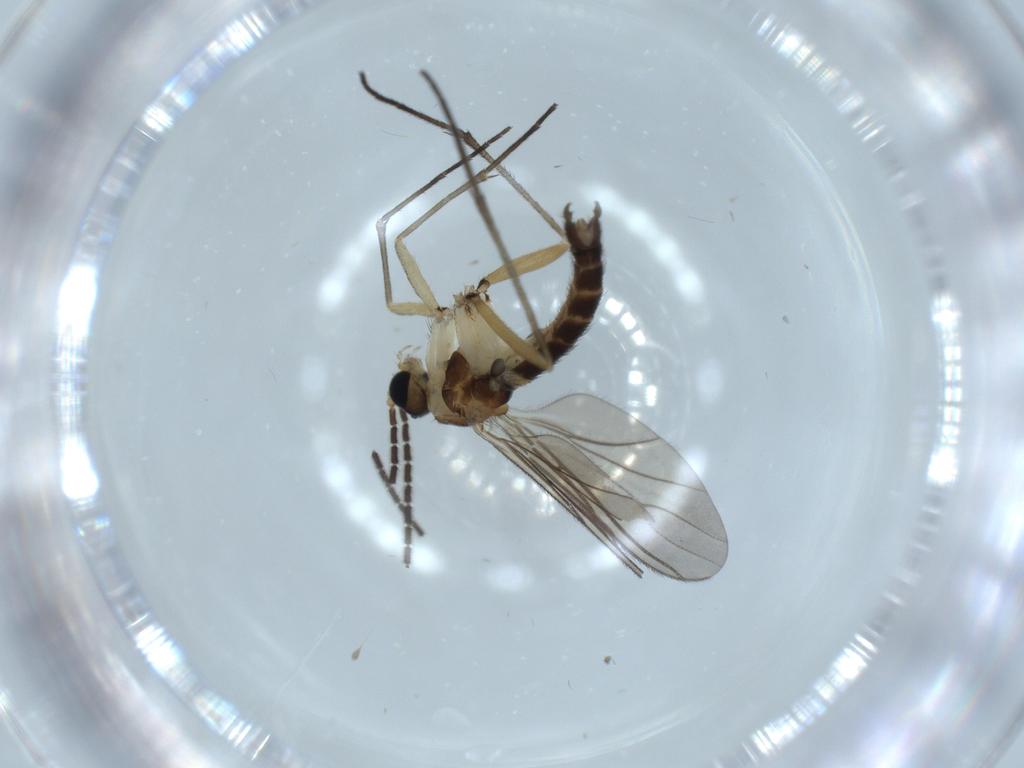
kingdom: Animalia
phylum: Arthropoda
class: Insecta
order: Diptera
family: Sciaridae
